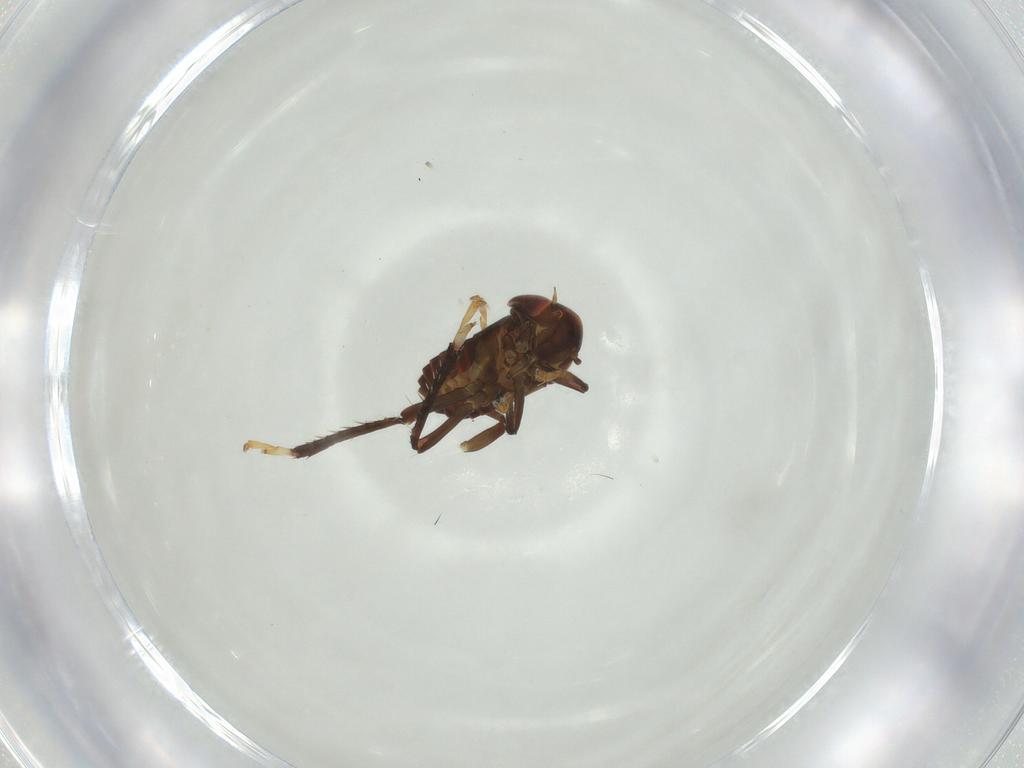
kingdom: Animalia
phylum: Arthropoda
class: Insecta
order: Hemiptera
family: Cicadellidae
